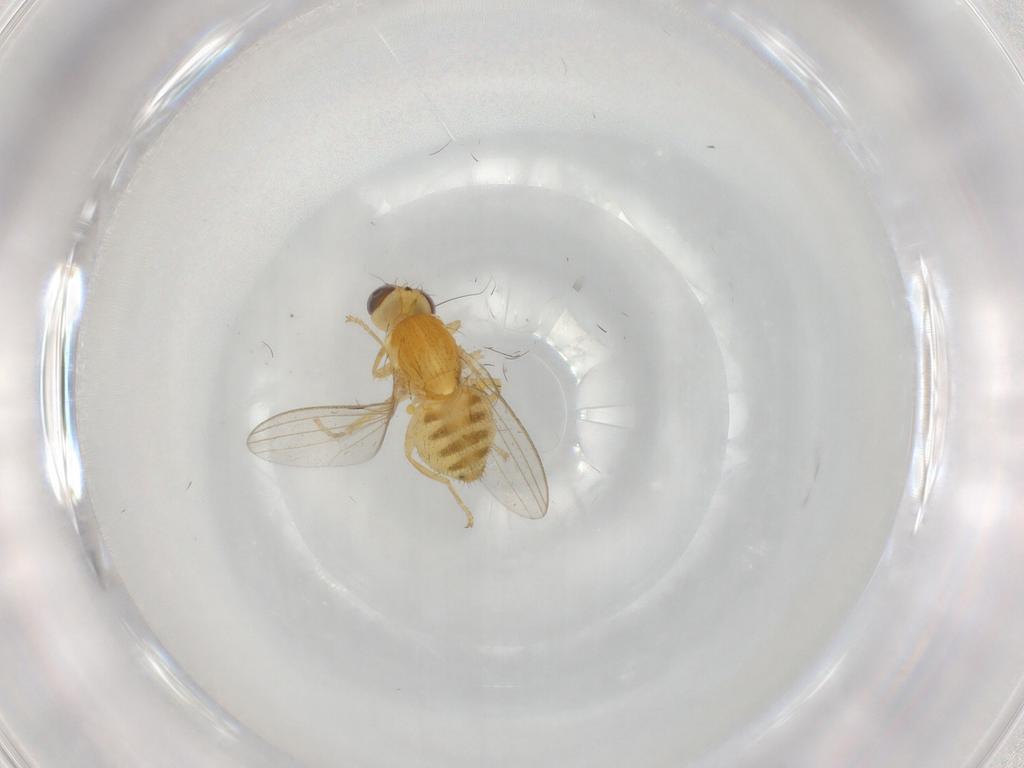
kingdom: Animalia
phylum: Arthropoda
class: Insecta
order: Diptera
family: Chyromyidae
